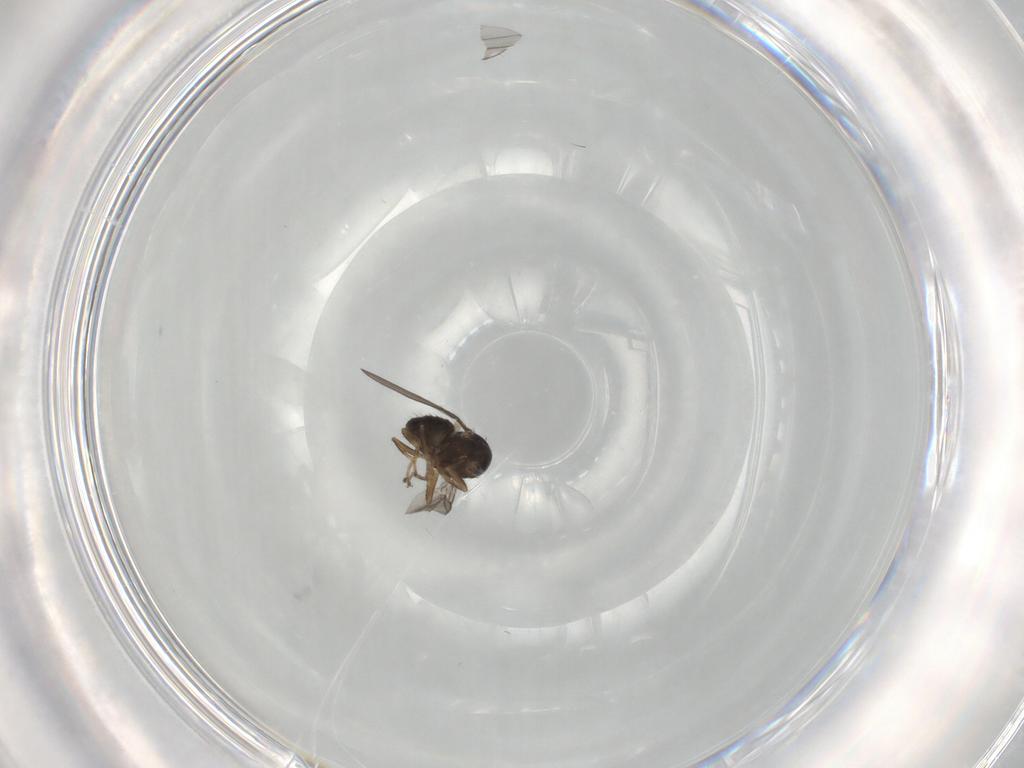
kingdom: Animalia
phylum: Arthropoda
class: Insecta
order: Diptera
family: Ephydridae
